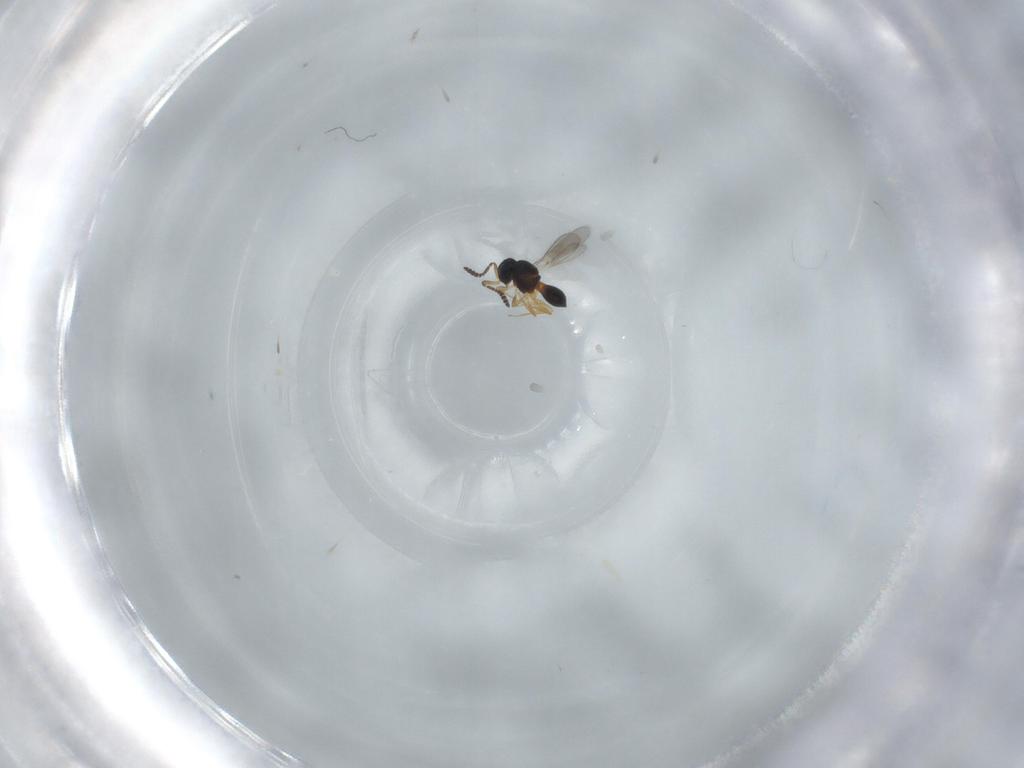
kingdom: Animalia
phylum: Arthropoda
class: Insecta
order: Hymenoptera
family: Scelionidae
